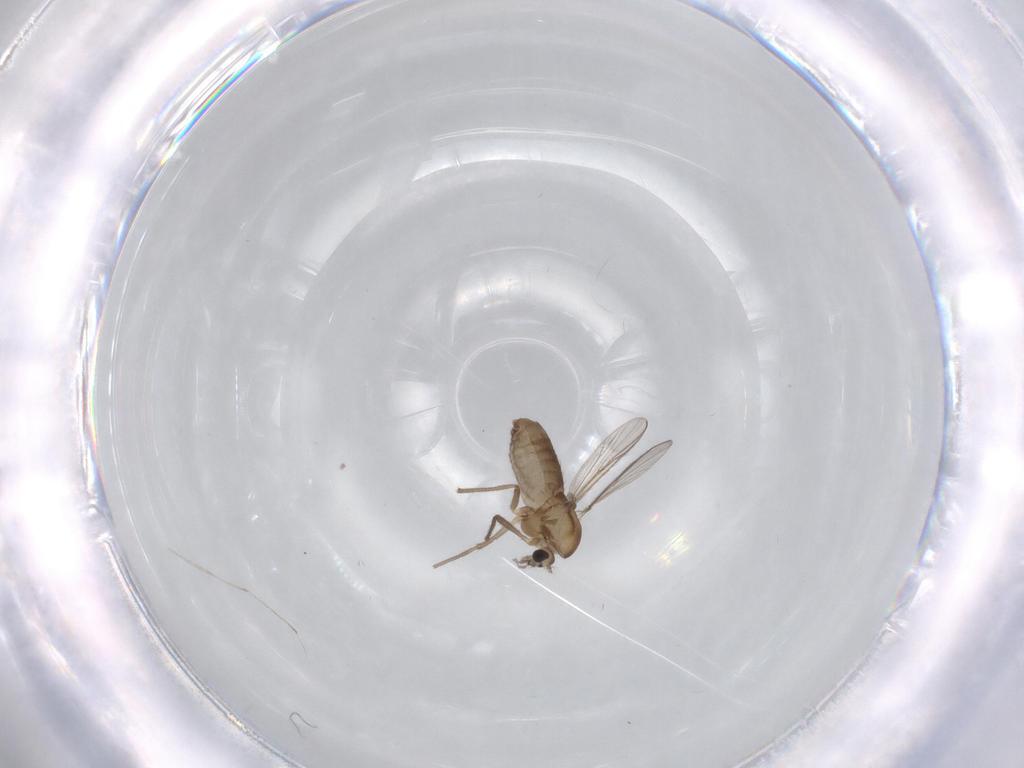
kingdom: Animalia
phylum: Arthropoda
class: Insecta
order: Diptera
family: Chironomidae
